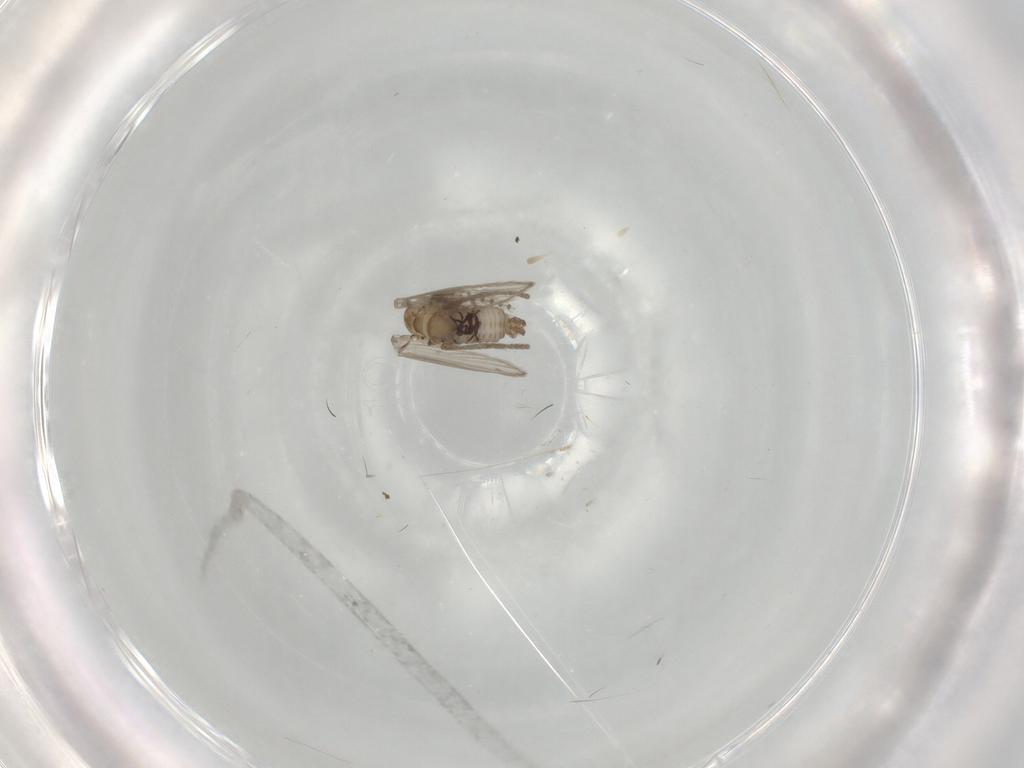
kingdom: Animalia
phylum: Arthropoda
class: Insecta
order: Diptera
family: Psychodidae
